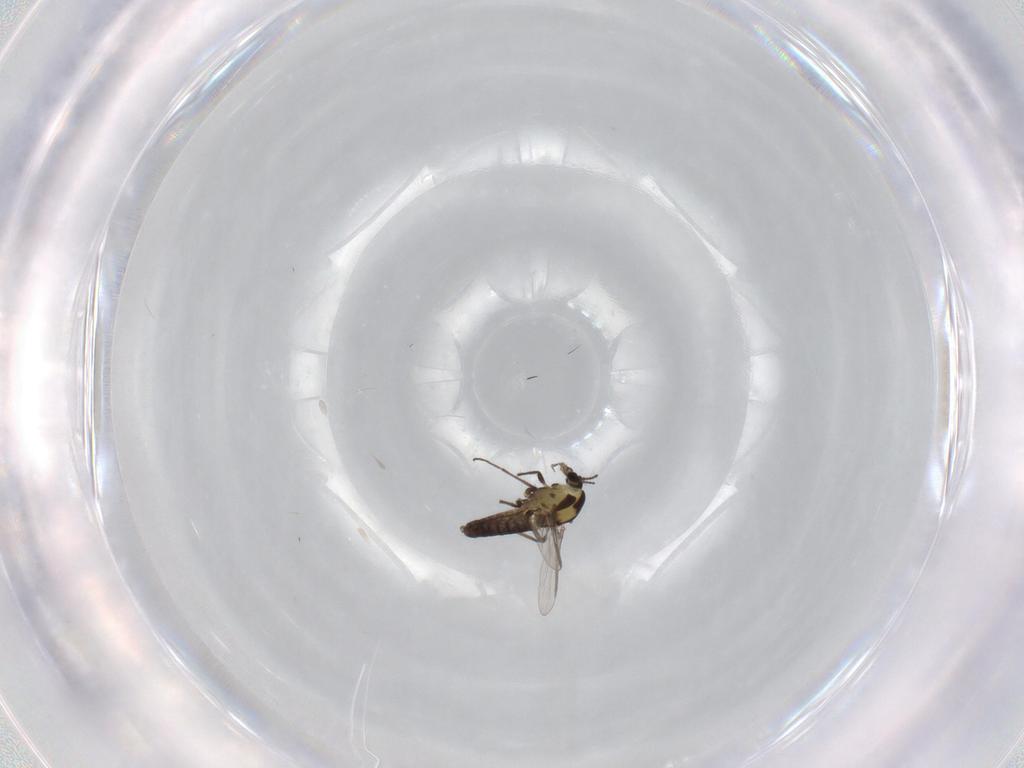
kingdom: Animalia
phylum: Arthropoda
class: Insecta
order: Diptera
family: Chironomidae
